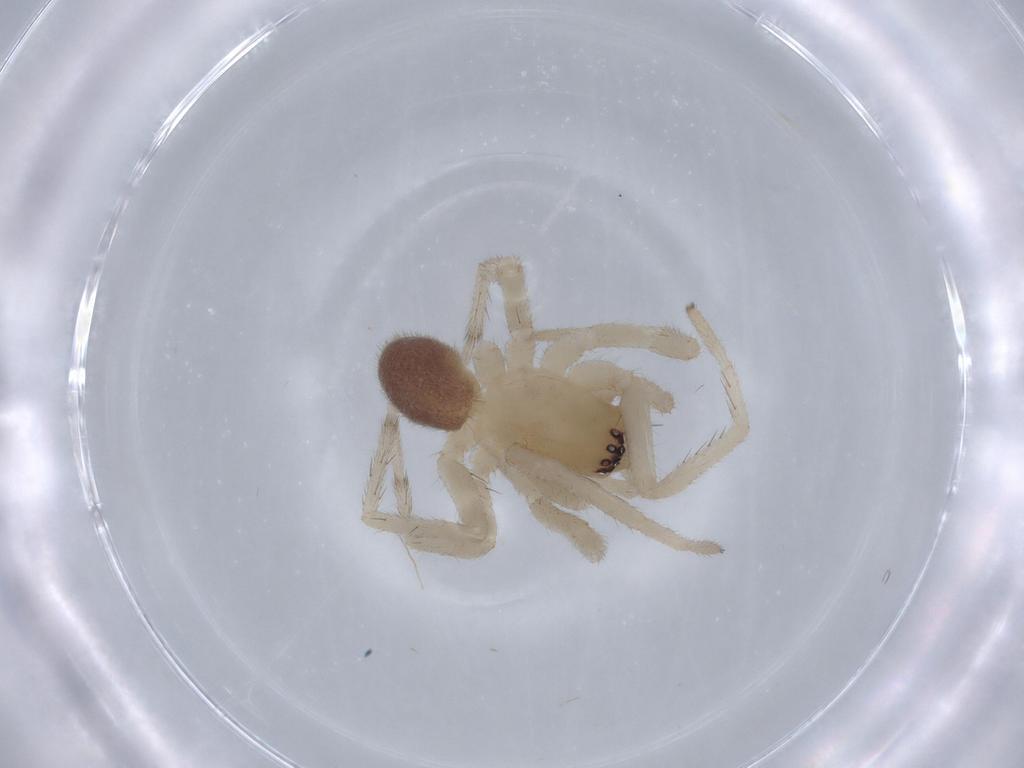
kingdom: Animalia
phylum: Arthropoda
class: Arachnida
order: Araneae
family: Corinnidae
